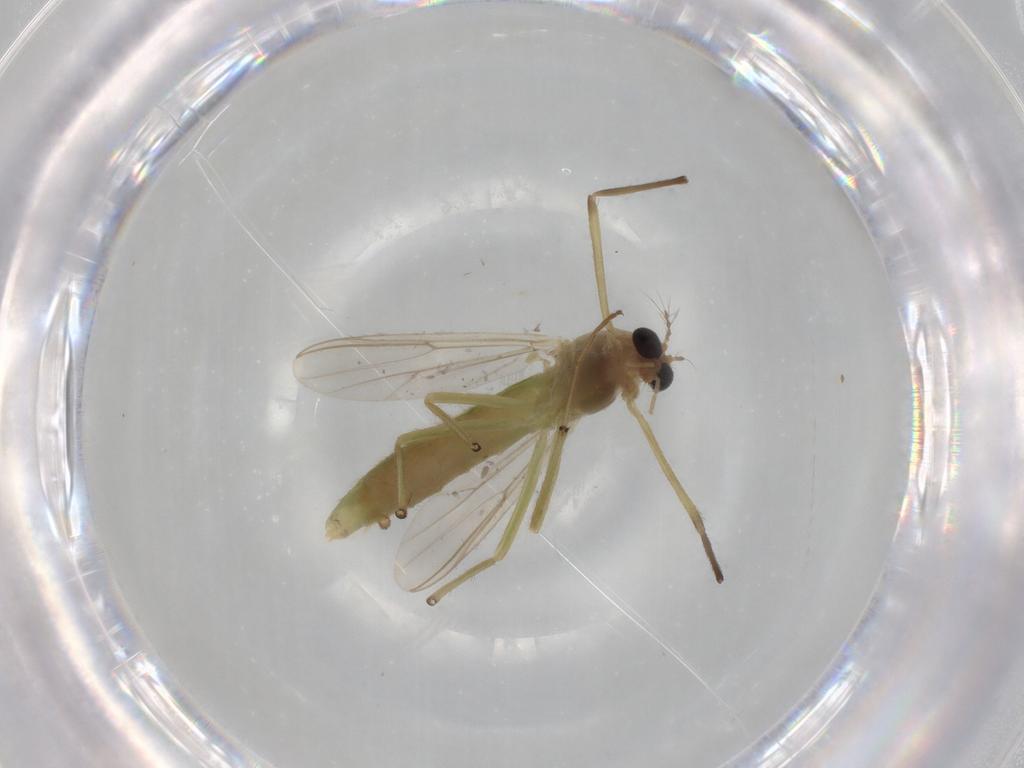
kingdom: Animalia
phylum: Arthropoda
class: Insecta
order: Diptera
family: Chironomidae
